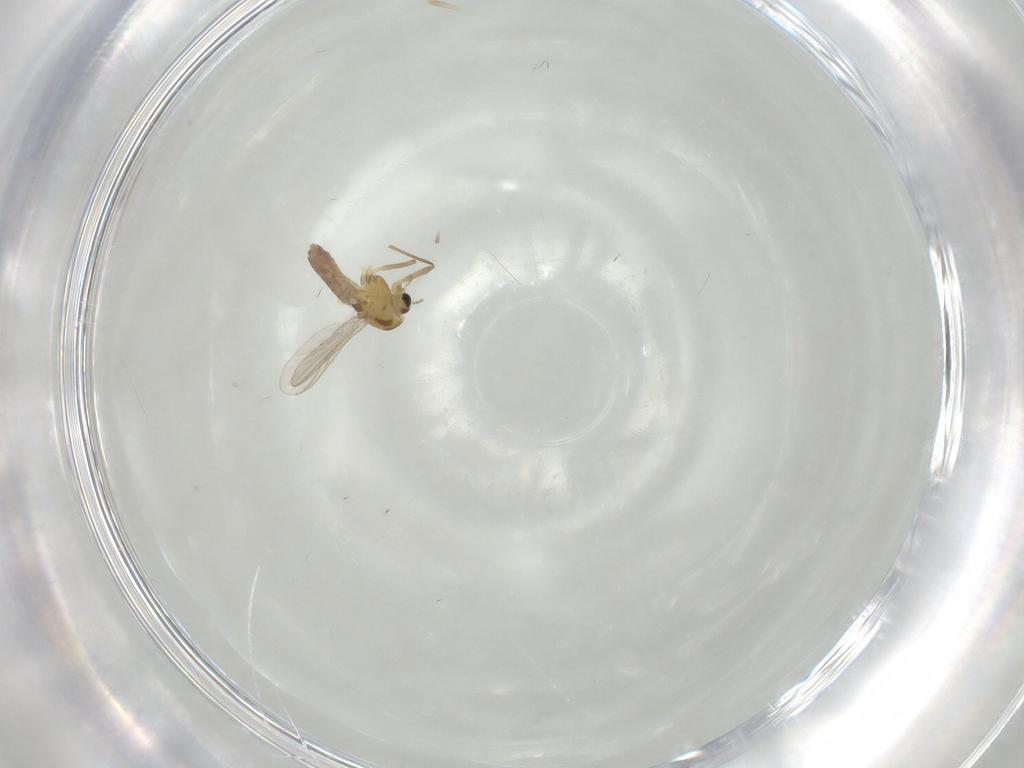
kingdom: Animalia
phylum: Arthropoda
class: Insecta
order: Diptera
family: Chironomidae
